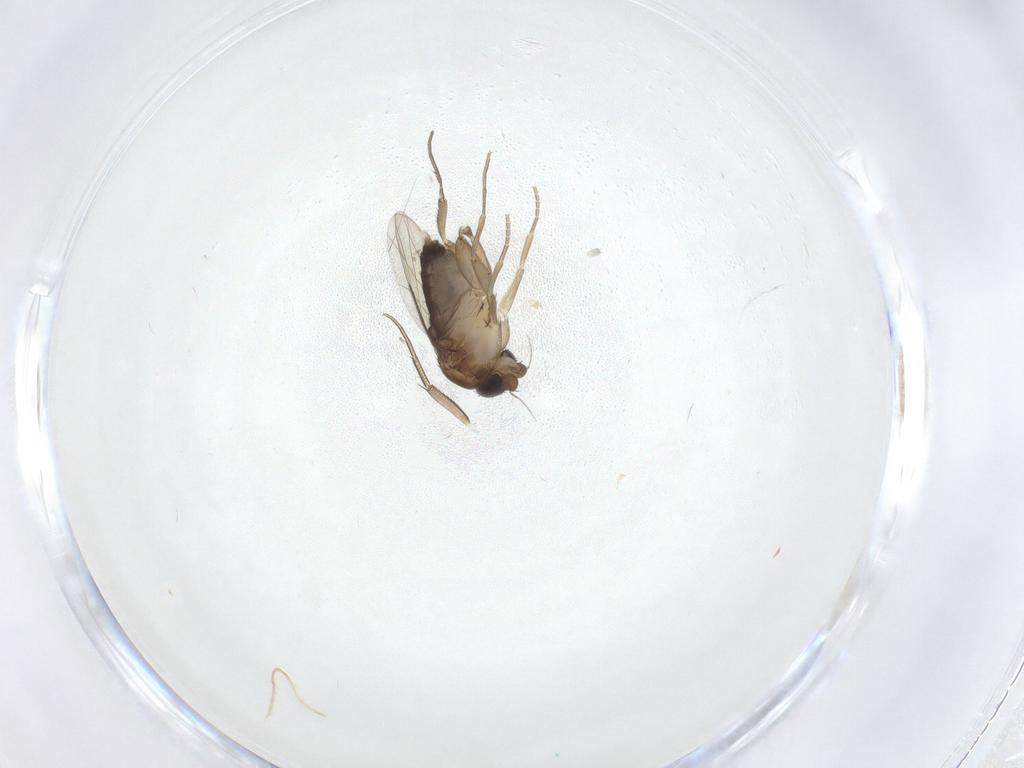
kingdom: Animalia
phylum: Arthropoda
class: Insecta
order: Diptera
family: Phoridae
